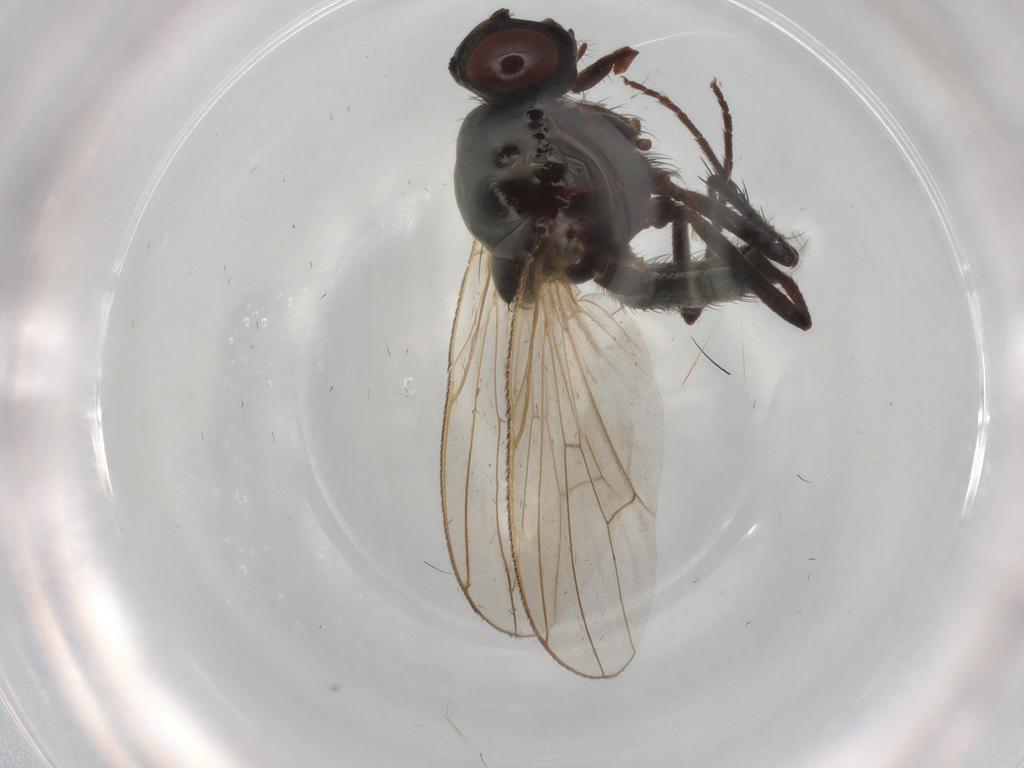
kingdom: Animalia
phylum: Arthropoda
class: Insecta
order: Diptera
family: Anthomyiidae
